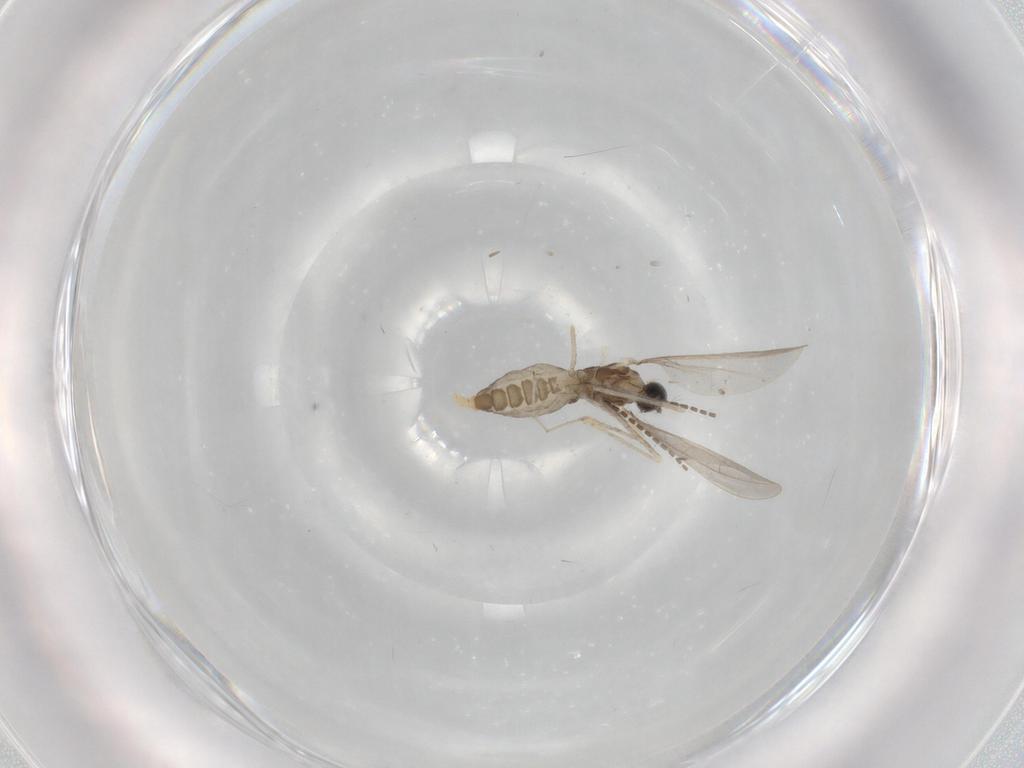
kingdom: Animalia
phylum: Arthropoda
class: Insecta
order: Diptera
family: Cecidomyiidae
